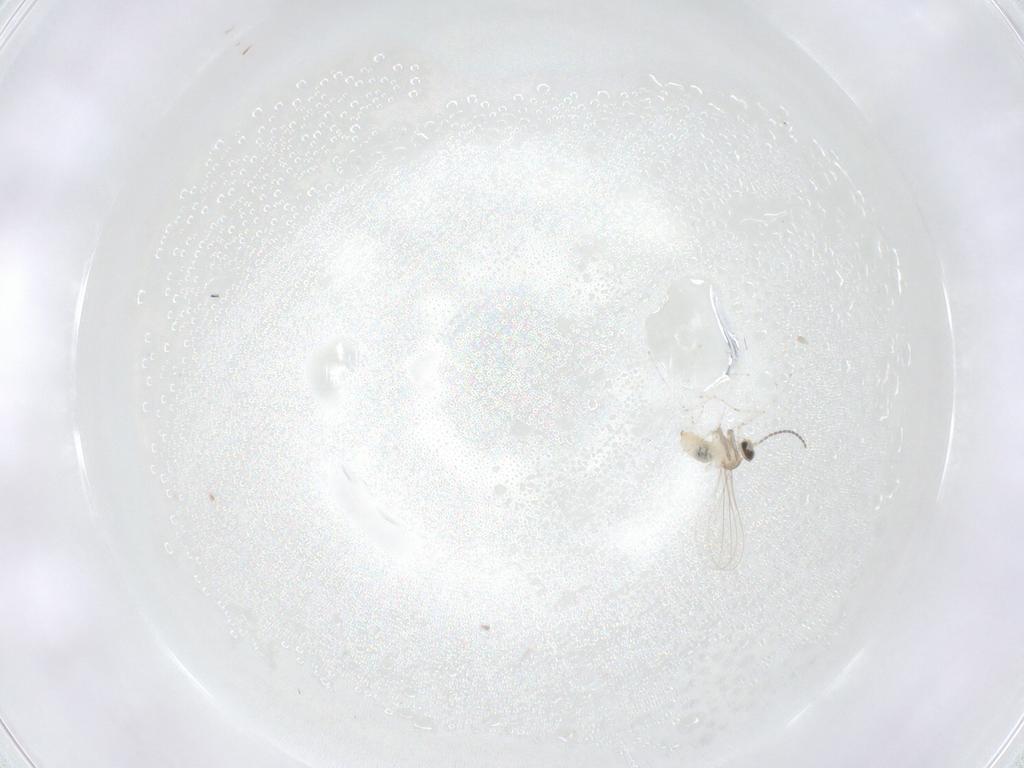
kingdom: Animalia
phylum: Arthropoda
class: Insecta
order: Diptera
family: Cecidomyiidae
